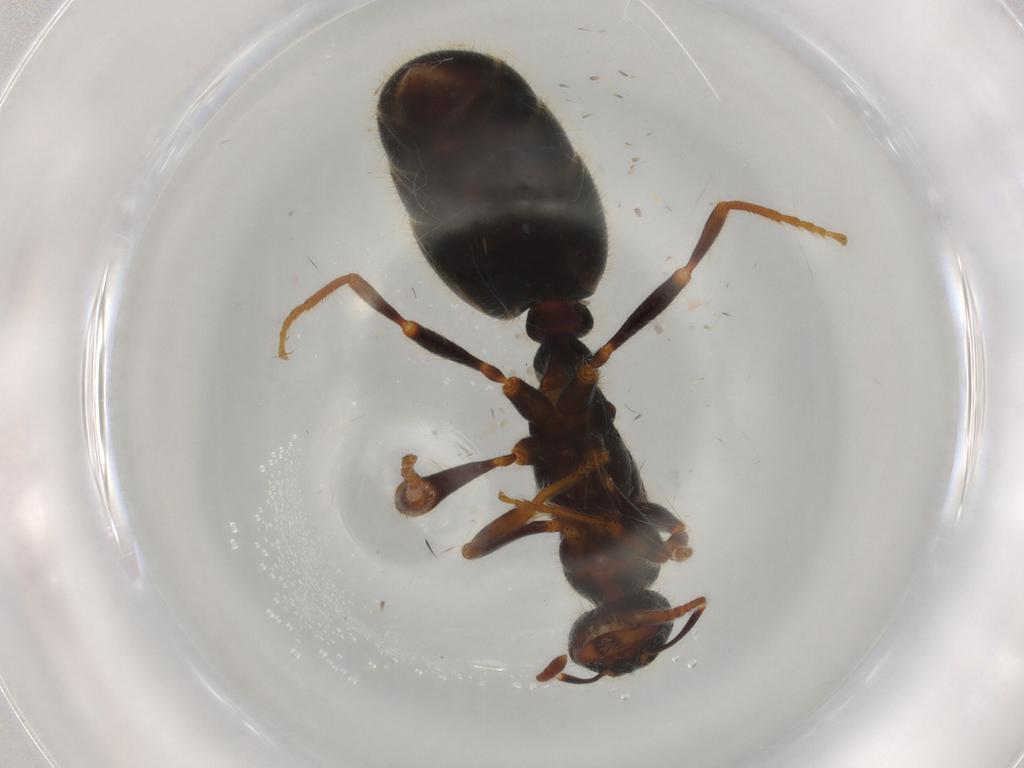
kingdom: Animalia
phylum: Arthropoda
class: Insecta
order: Hymenoptera
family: Formicidae
